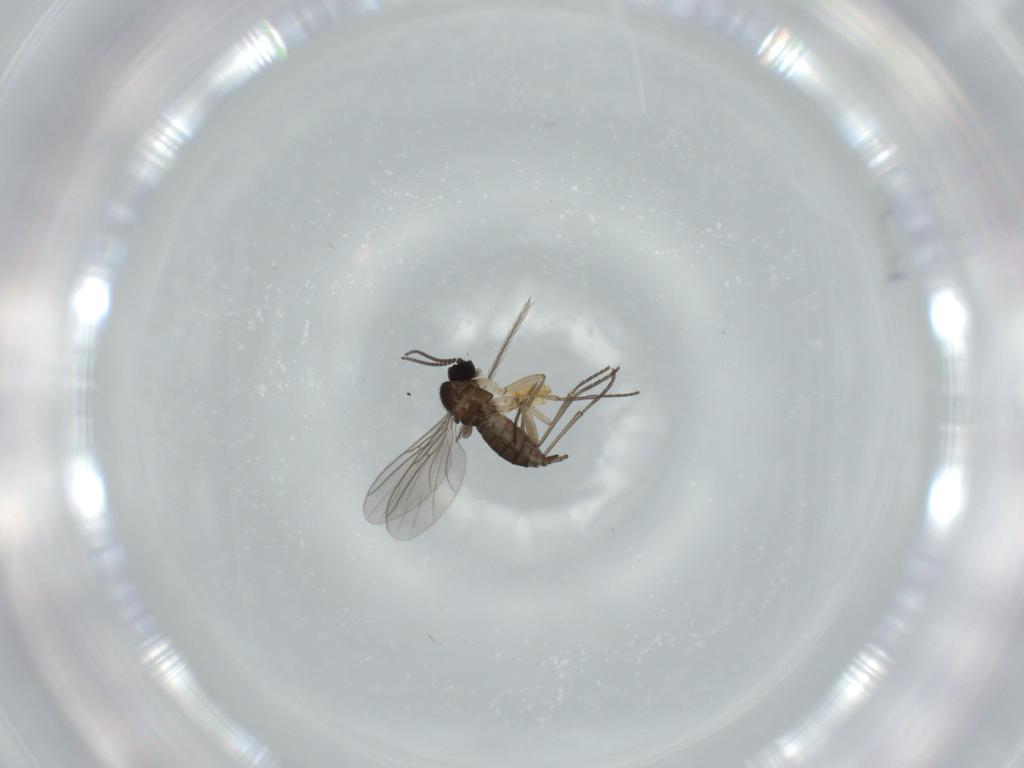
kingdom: Animalia
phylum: Arthropoda
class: Insecta
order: Diptera
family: Sciaridae
